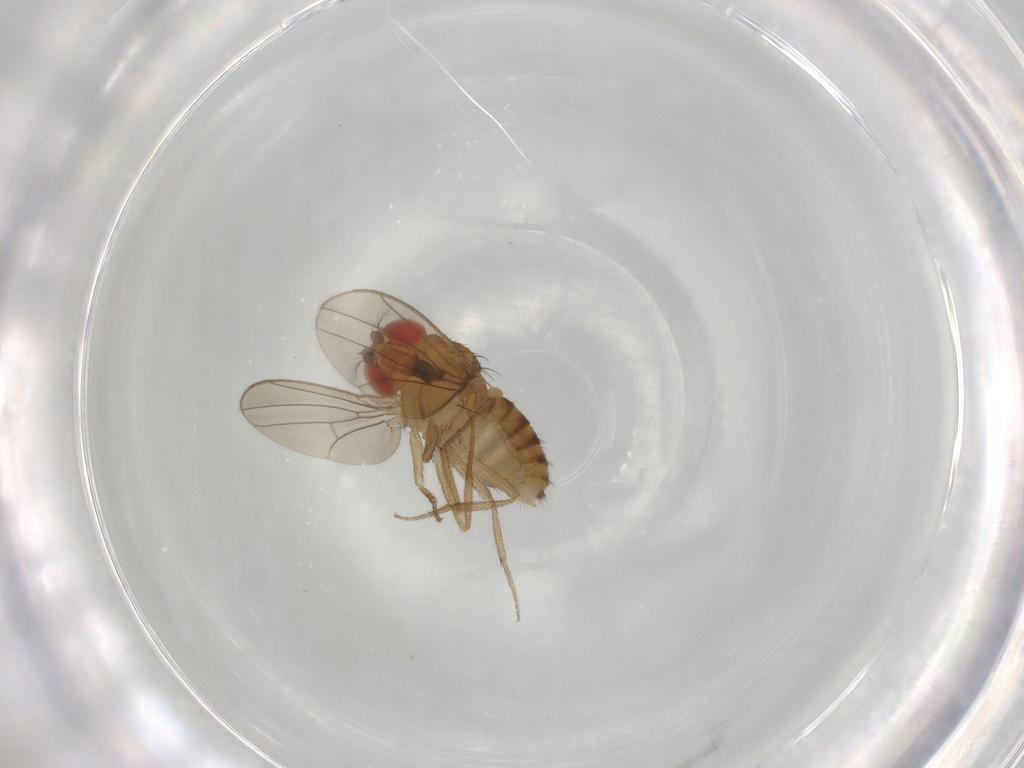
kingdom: Animalia
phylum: Arthropoda
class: Insecta
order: Diptera
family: Drosophilidae
